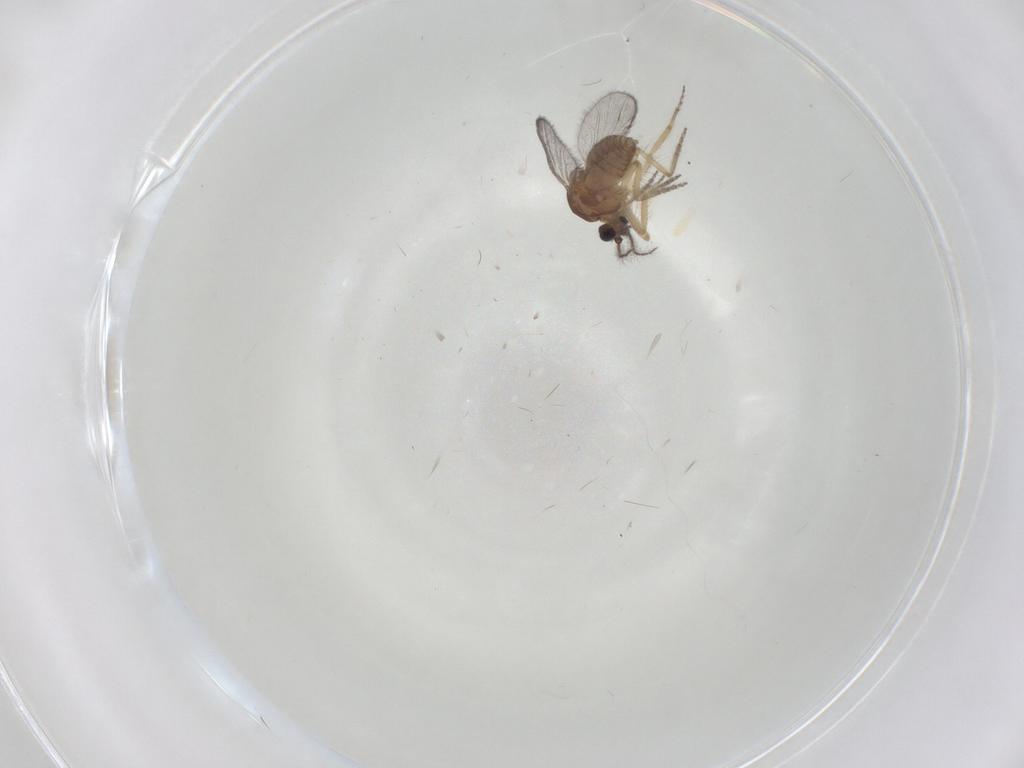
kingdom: Animalia
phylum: Arthropoda
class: Insecta
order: Diptera
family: Ceratopogonidae
